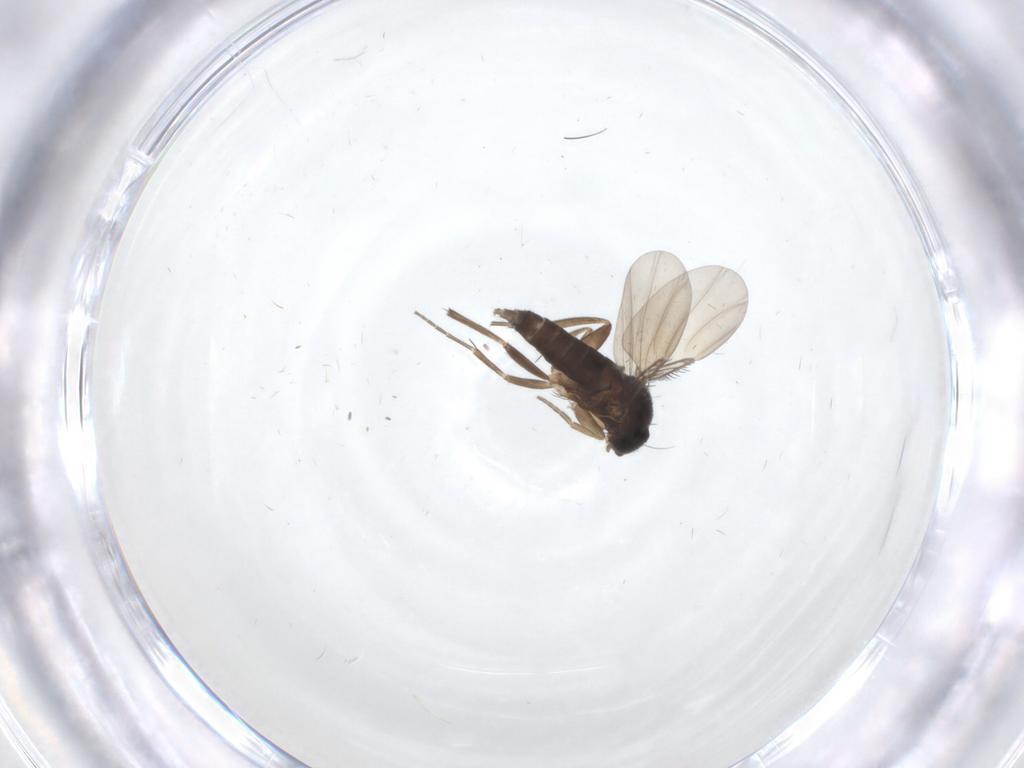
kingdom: Animalia
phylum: Arthropoda
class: Insecta
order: Diptera
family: Phoridae
